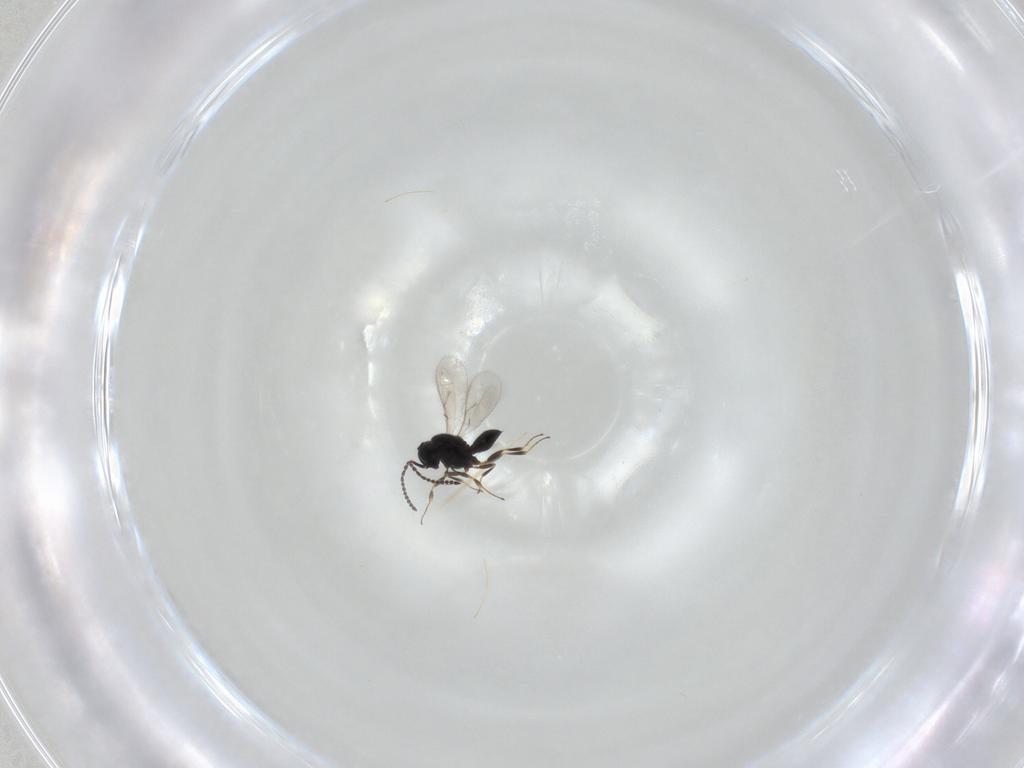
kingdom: Animalia
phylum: Arthropoda
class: Insecta
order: Hymenoptera
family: Scelionidae
